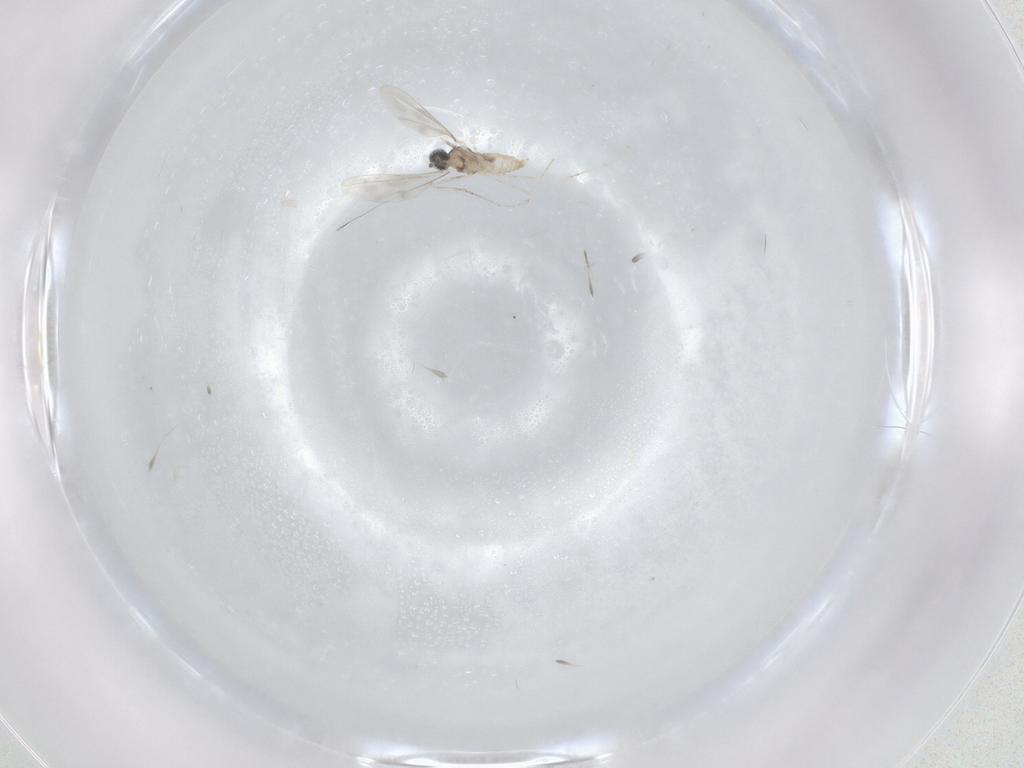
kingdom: Animalia
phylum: Arthropoda
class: Insecta
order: Diptera
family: Cecidomyiidae
